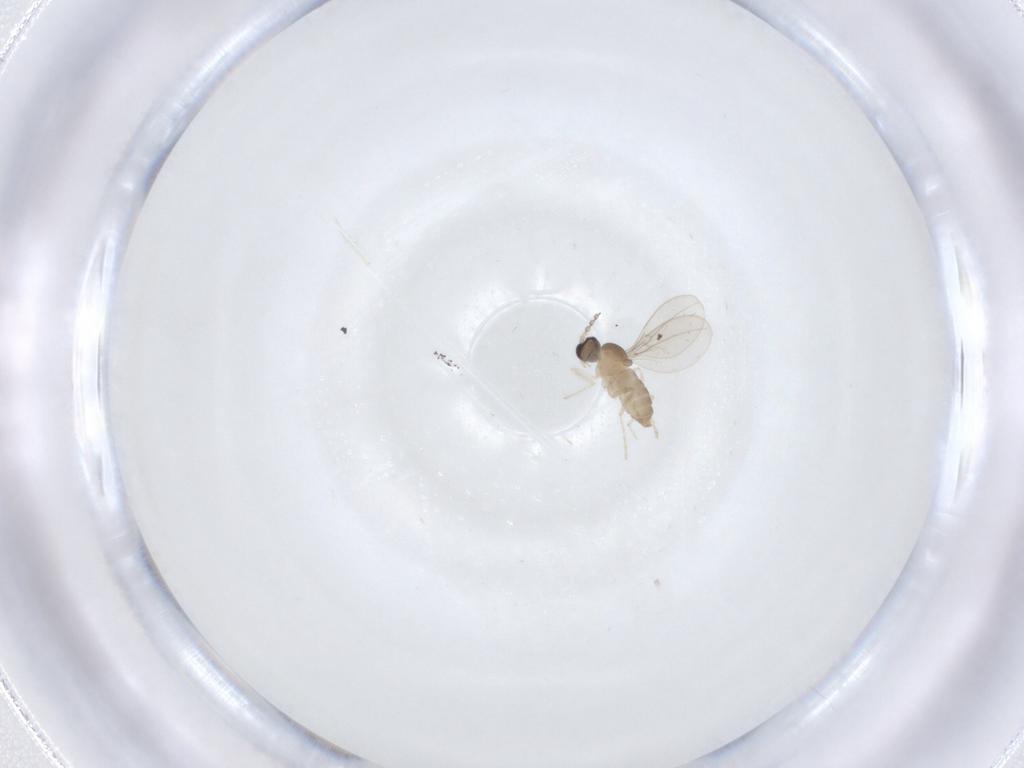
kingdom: Animalia
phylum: Arthropoda
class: Insecta
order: Diptera
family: Cecidomyiidae
